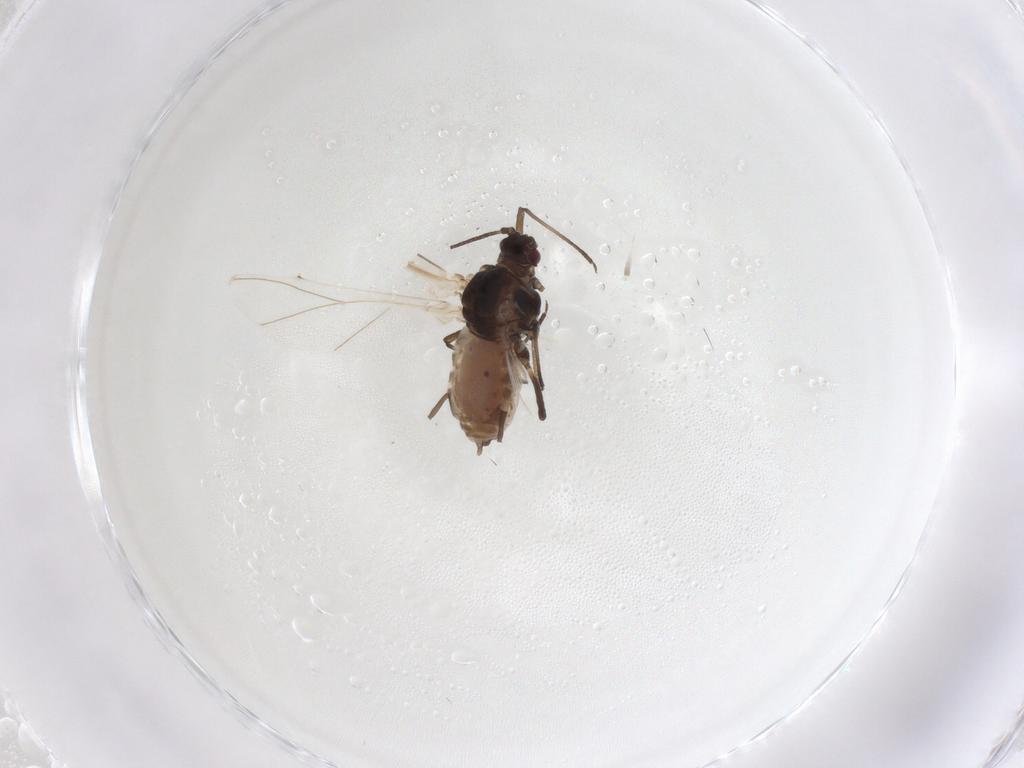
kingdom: Animalia
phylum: Arthropoda
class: Insecta
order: Hemiptera
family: Aphididae
